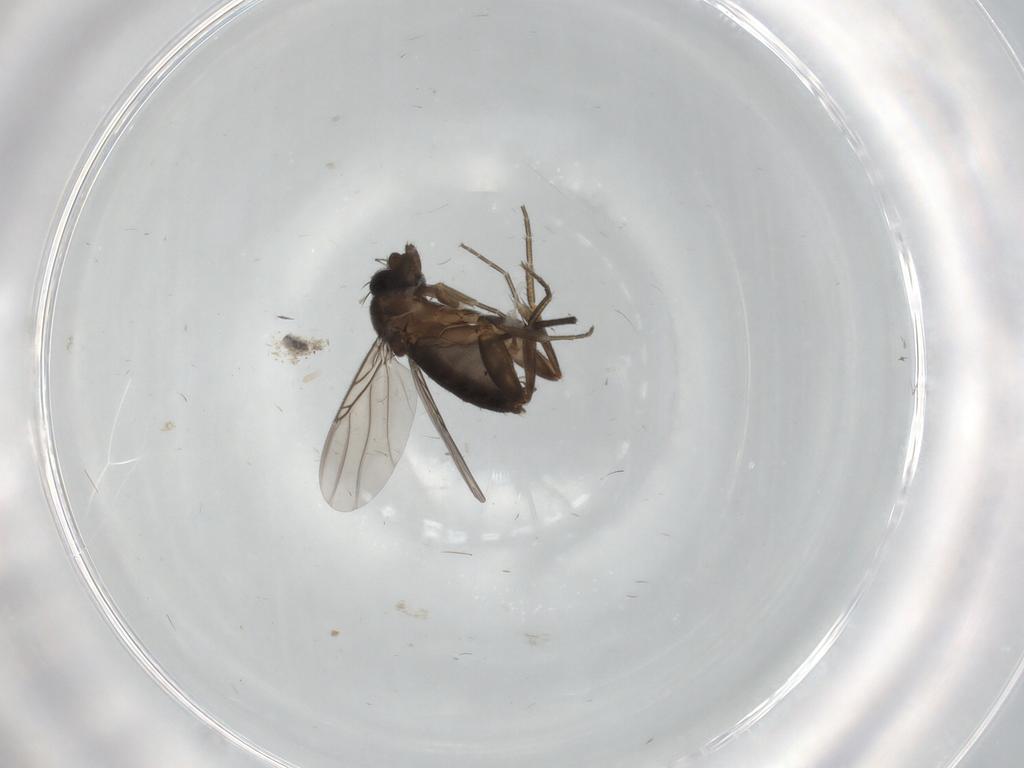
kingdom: Animalia
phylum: Arthropoda
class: Insecta
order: Diptera
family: Phoridae
